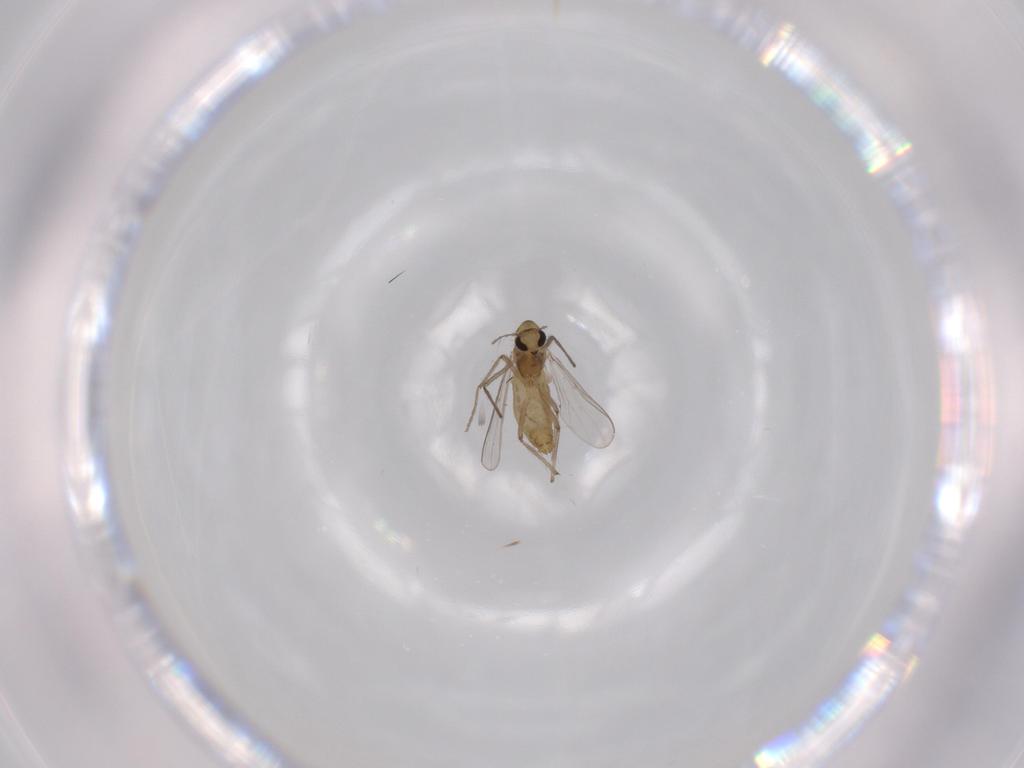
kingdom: Animalia
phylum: Arthropoda
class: Insecta
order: Diptera
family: Chironomidae
